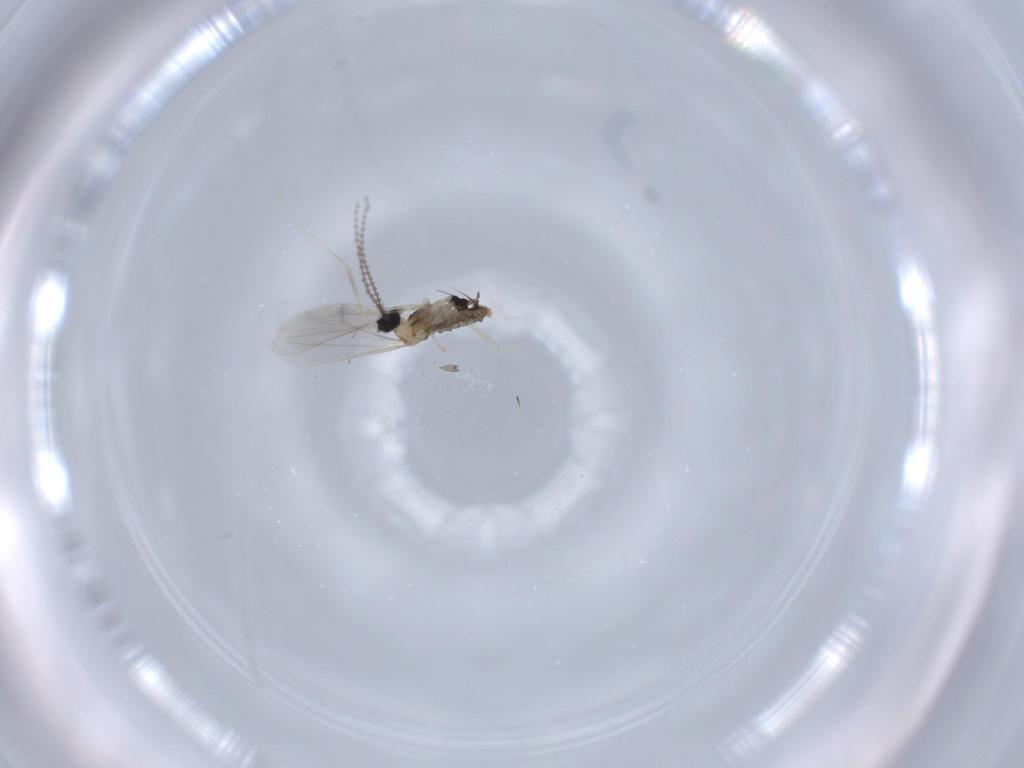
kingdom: Animalia
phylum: Arthropoda
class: Insecta
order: Diptera
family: Cecidomyiidae
